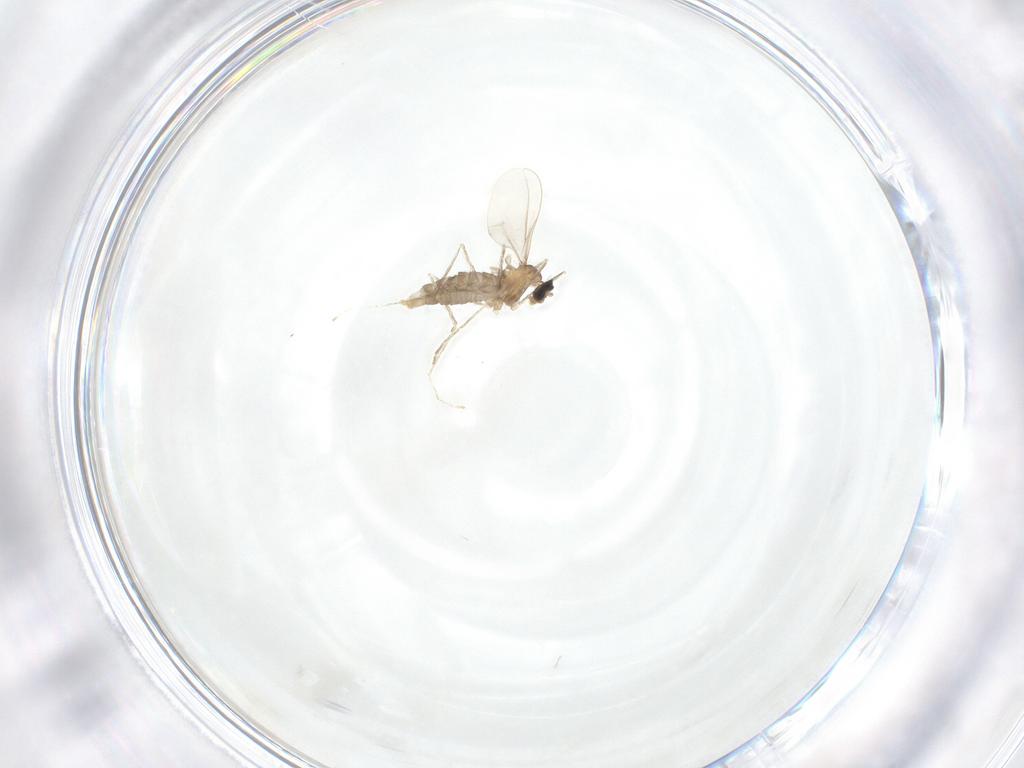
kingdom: Animalia
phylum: Arthropoda
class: Insecta
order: Diptera
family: Cecidomyiidae
